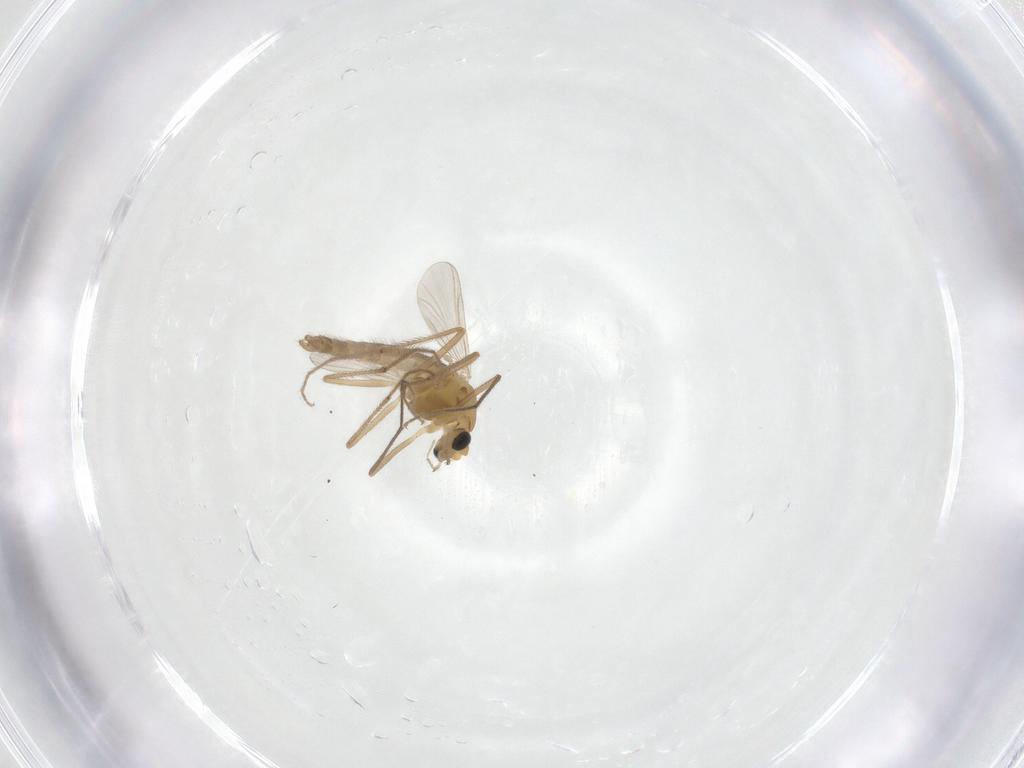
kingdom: Animalia
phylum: Arthropoda
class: Insecta
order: Diptera
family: Chironomidae
